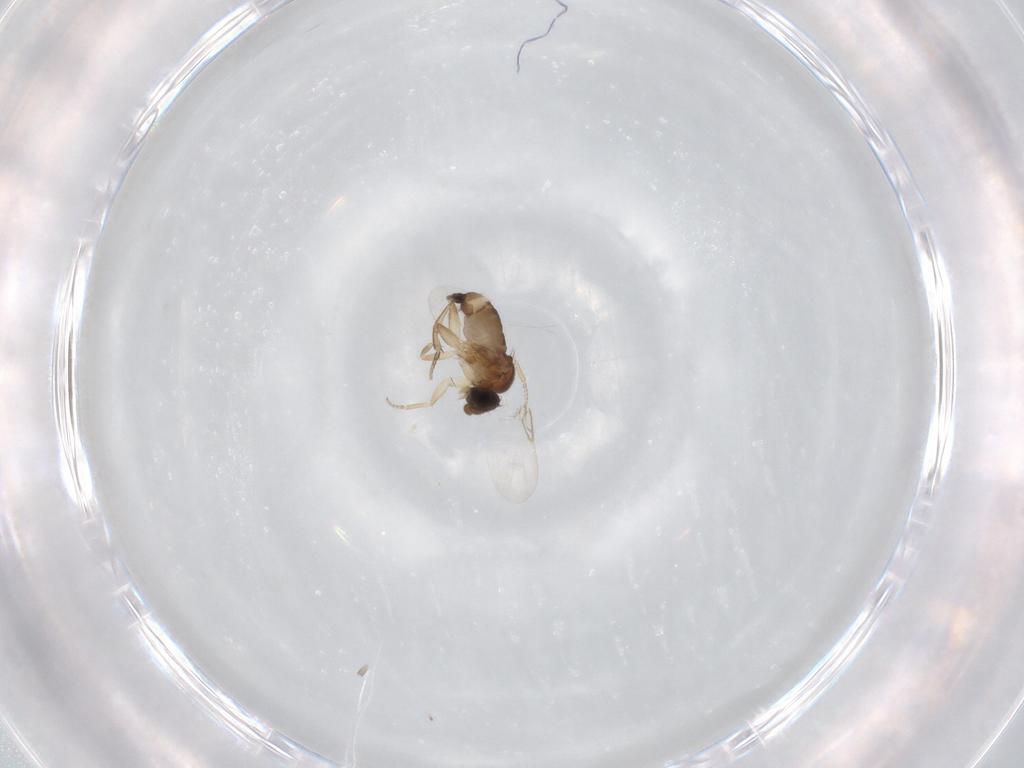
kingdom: Animalia
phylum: Arthropoda
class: Insecta
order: Diptera
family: Phoridae
